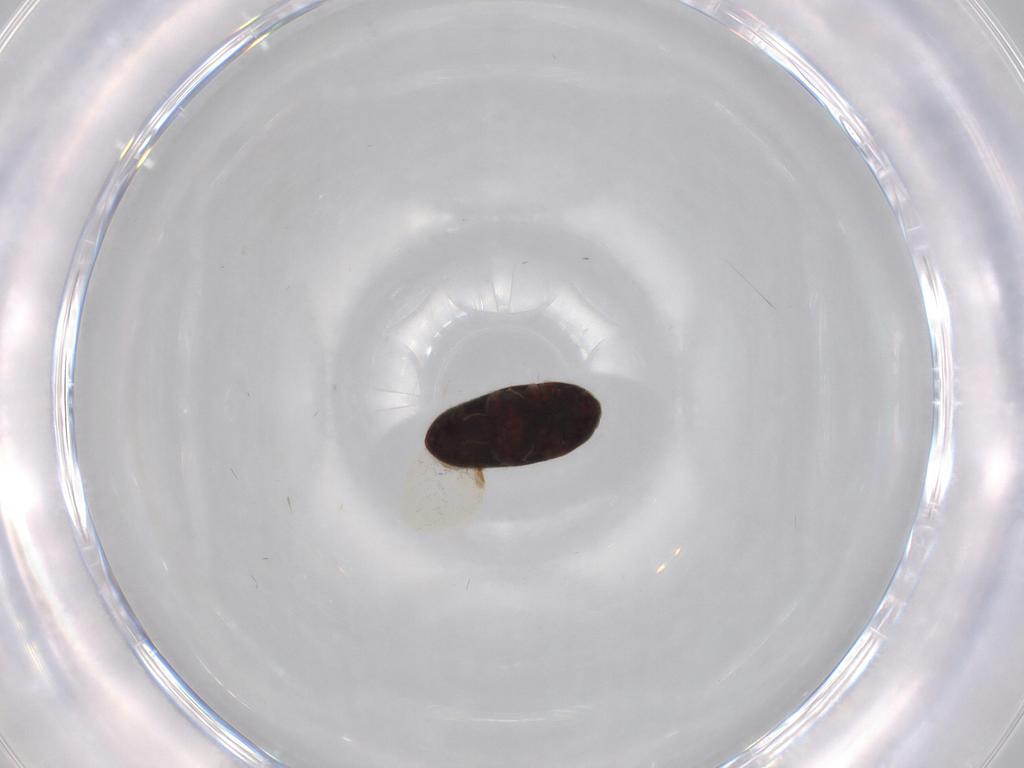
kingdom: Animalia
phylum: Arthropoda
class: Insecta
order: Coleoptera
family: Throscidae
